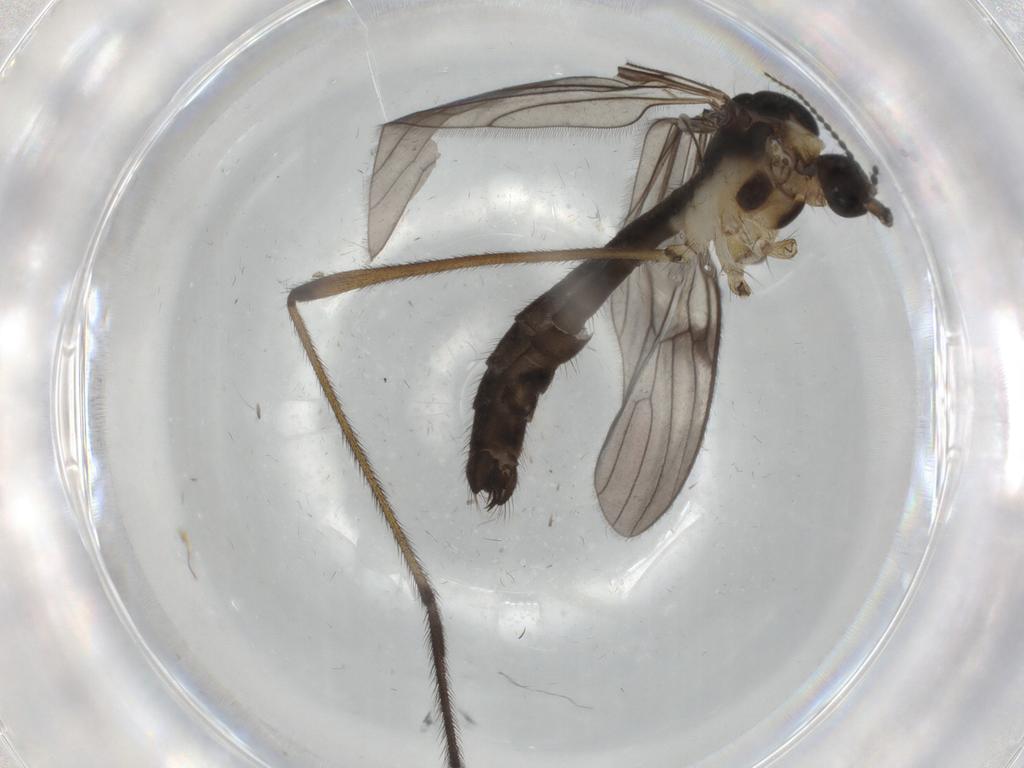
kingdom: Animalia
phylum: Arthropoda
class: Insecta
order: Diptera
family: Limoniidae
